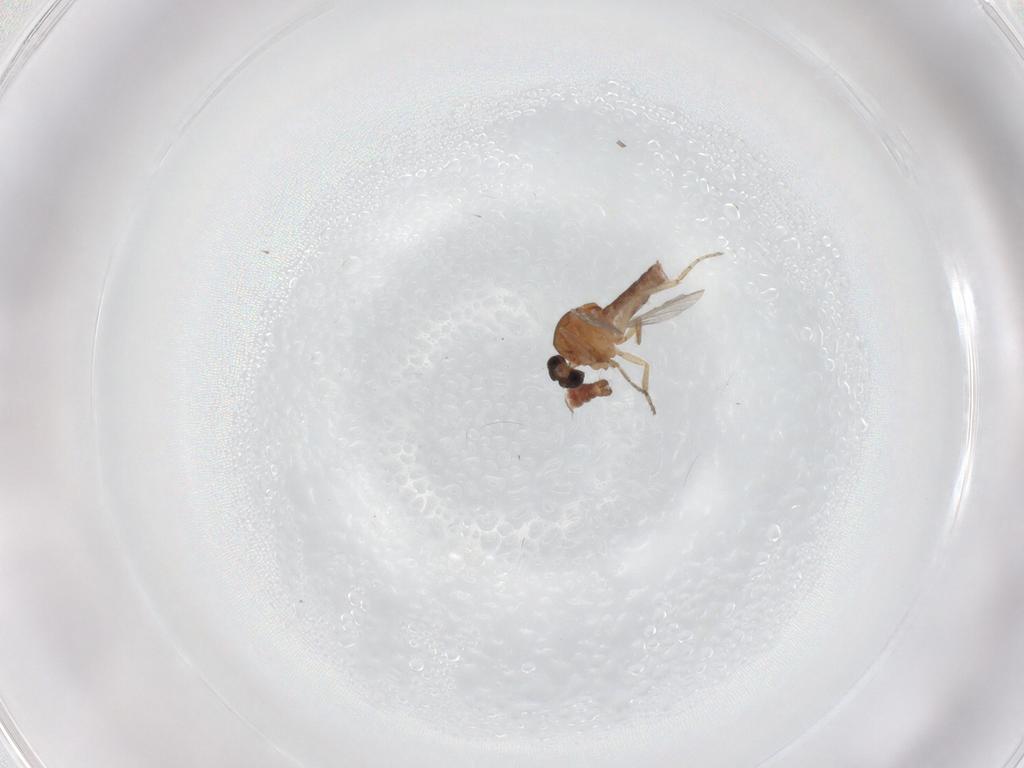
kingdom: Animalia
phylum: Arthropoda
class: Insecta
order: Diptera
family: Ceratopogonidae
